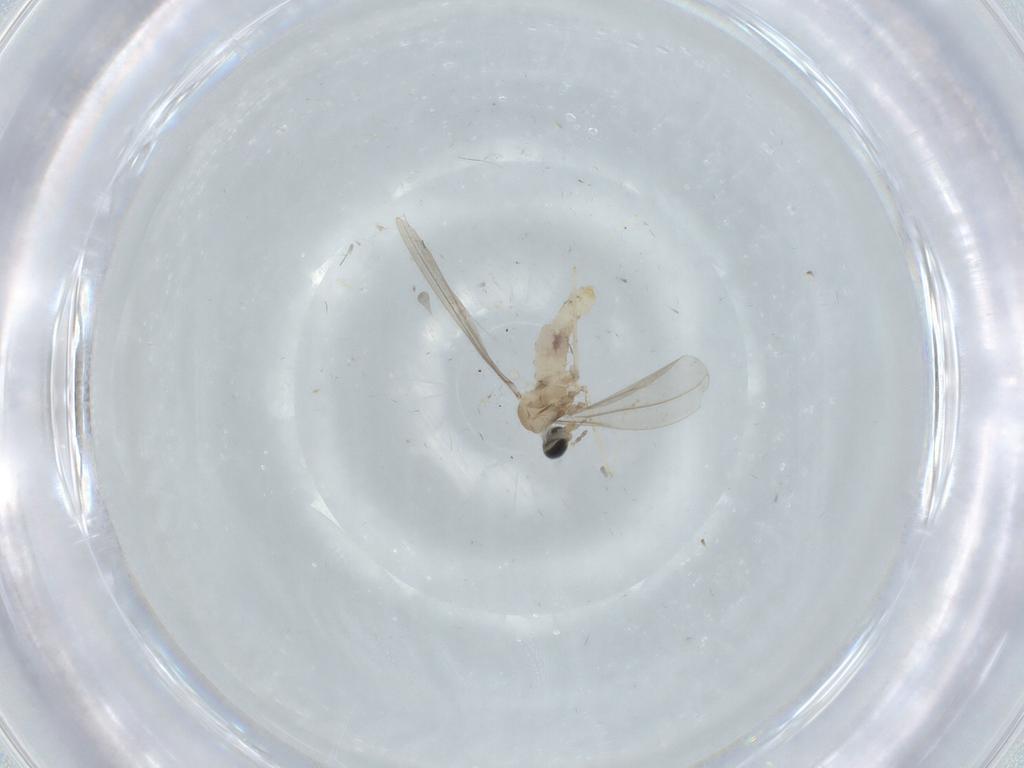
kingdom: Animalia
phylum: Arthropoda
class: Insecta
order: Diptera
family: Cecidomyiidae
